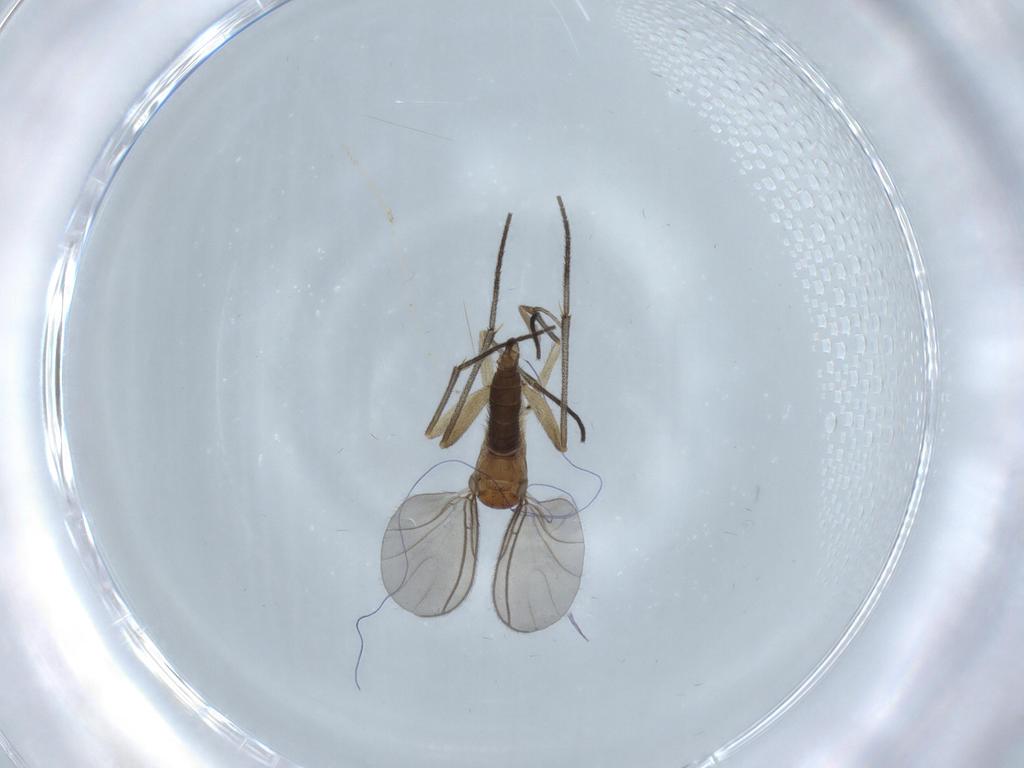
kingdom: Animalia
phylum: Arthropoda
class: Insecta
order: Diptera
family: Sciaridae
